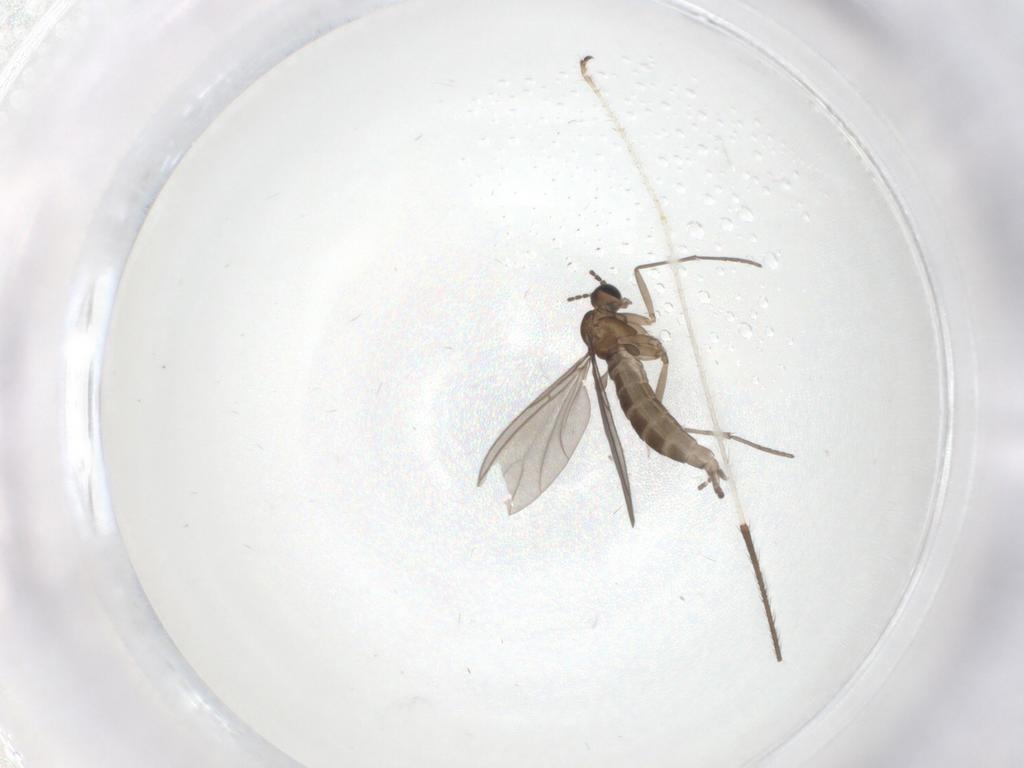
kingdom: Animalia
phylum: Arthropoda
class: Insecta
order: Diptera
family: Sciaridae
